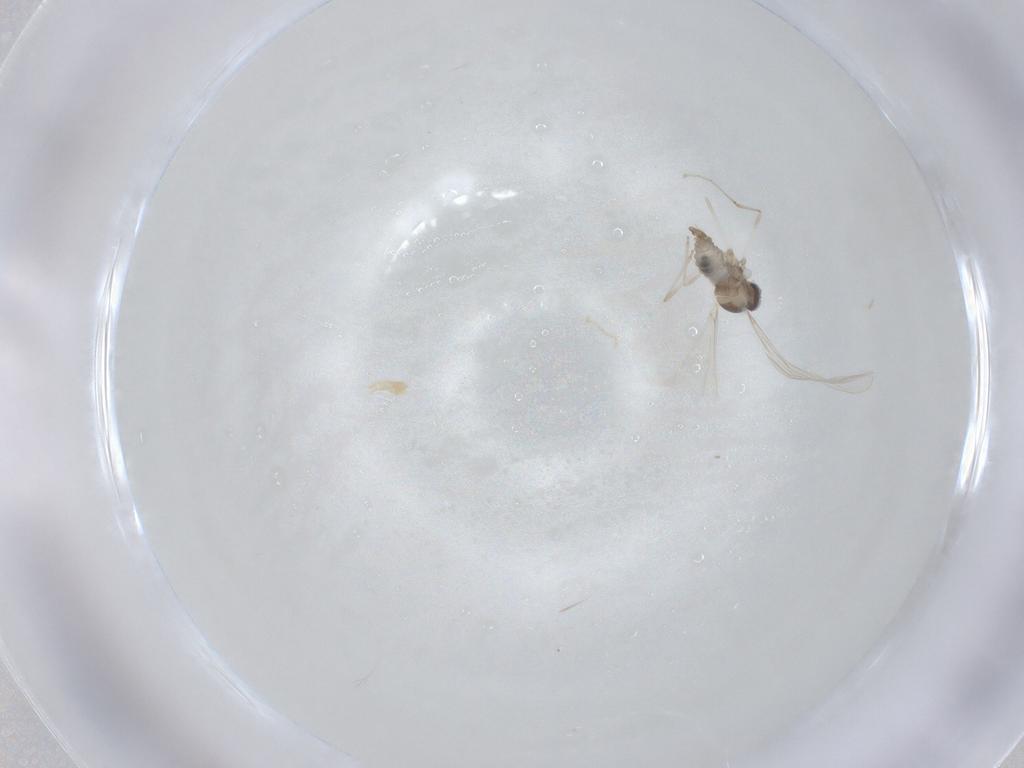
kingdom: Animalia
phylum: Arthropoda
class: Insecta
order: Diptera
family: Cecidomyiidae
